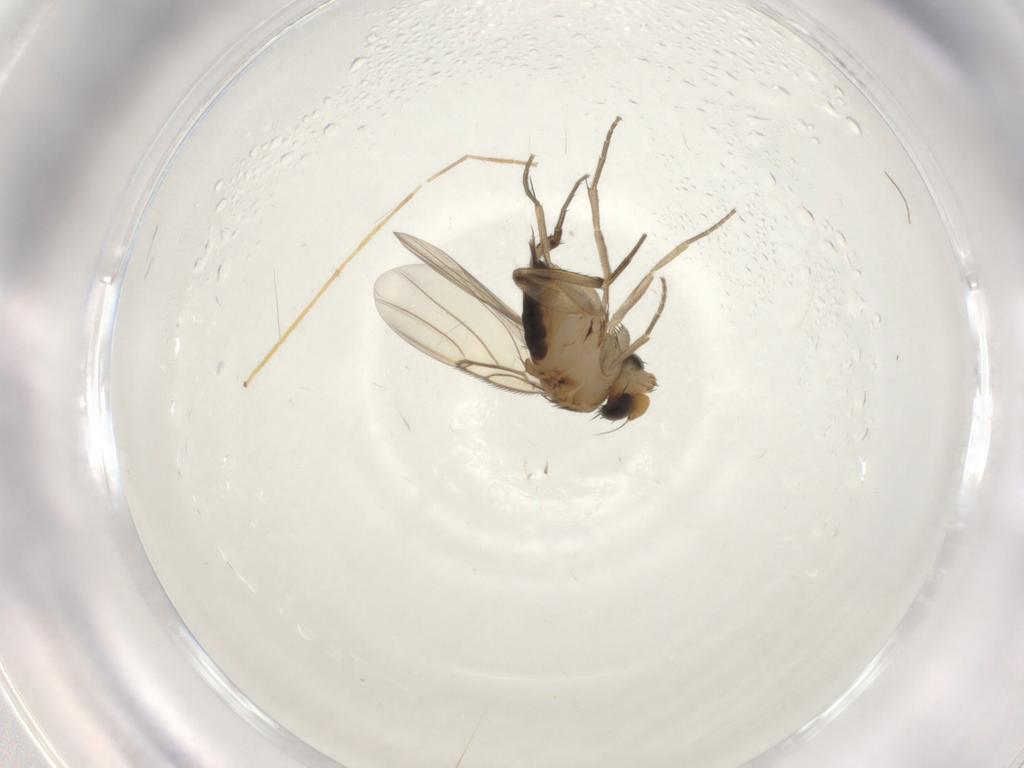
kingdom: Animalia
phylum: Arthropoda
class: Insecta
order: Diptera
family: Chironomidae
